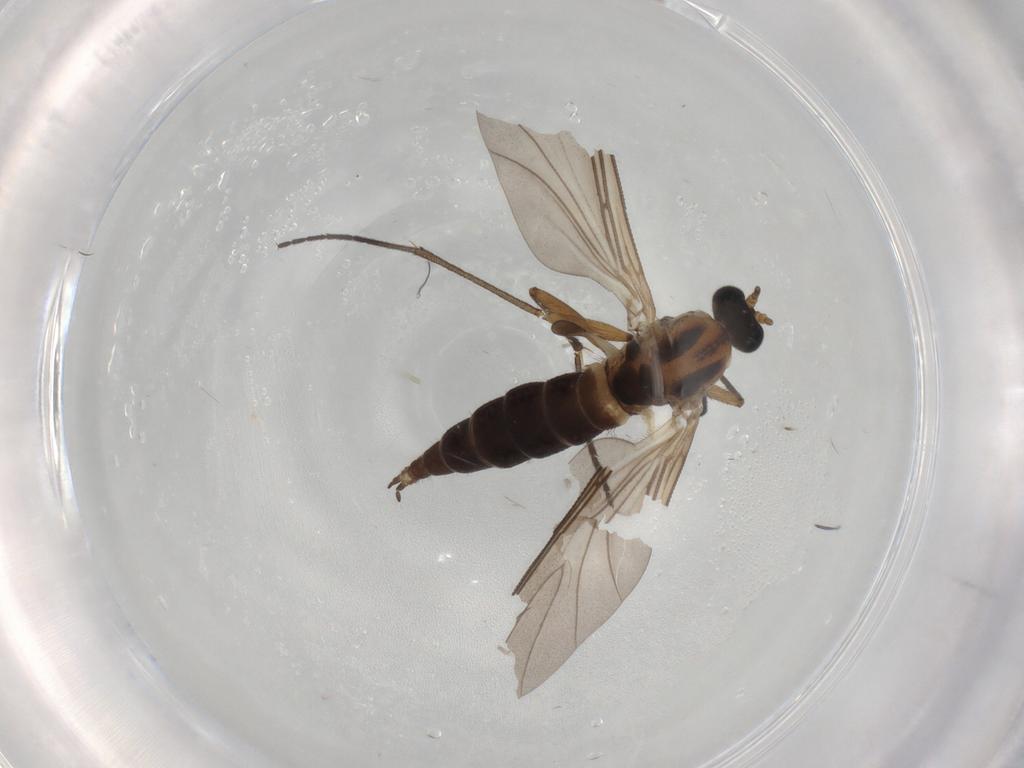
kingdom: Animalia
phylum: Arthropoda
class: Insecta
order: Diptera
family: Sciaridae
